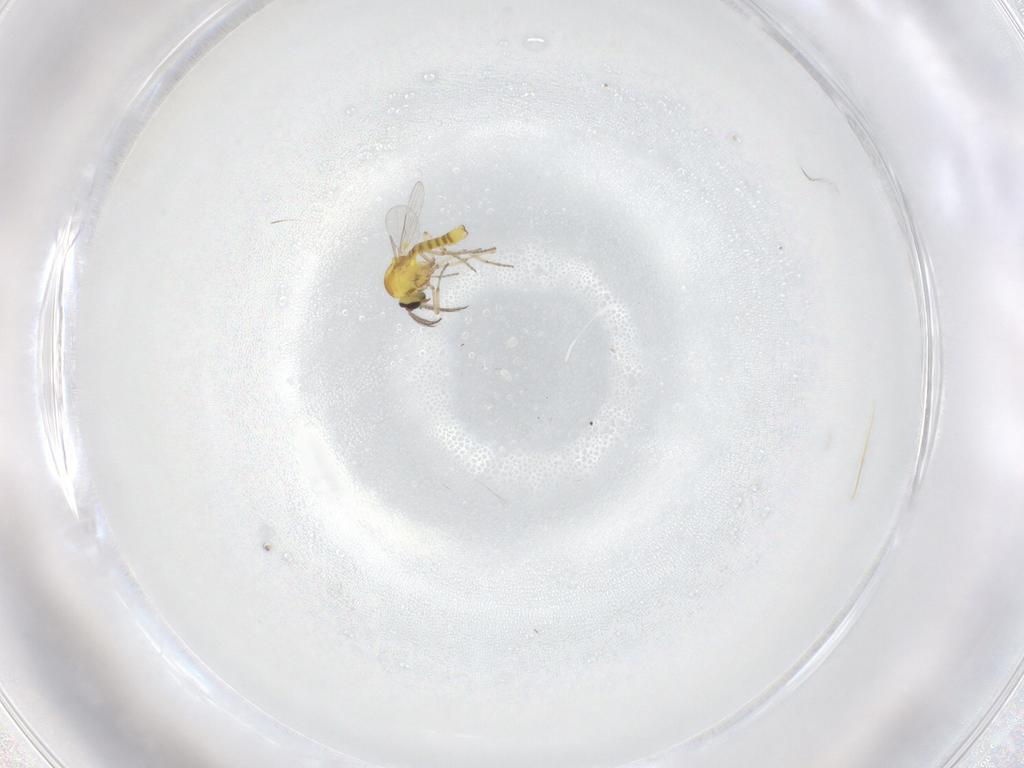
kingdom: Animalia
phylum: Arthropoda
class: Insecta
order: Diptera
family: Ceratopogonidae
